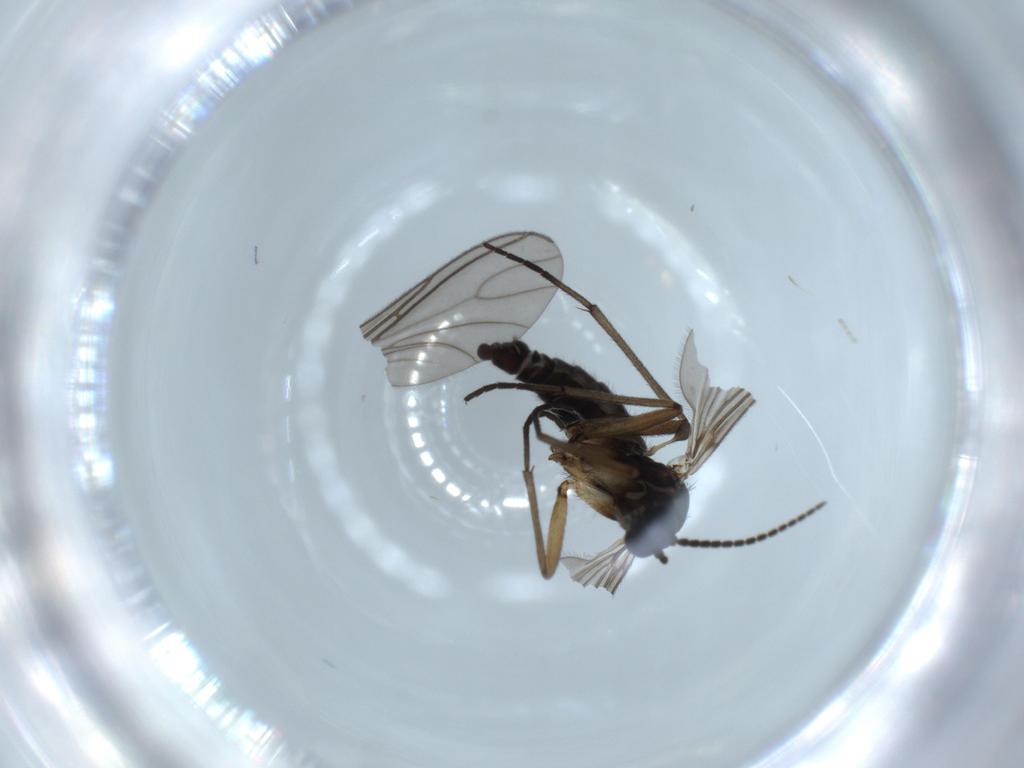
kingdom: Animalia
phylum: Arthropoda
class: Insecta
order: Diptera
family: Sciaridae
